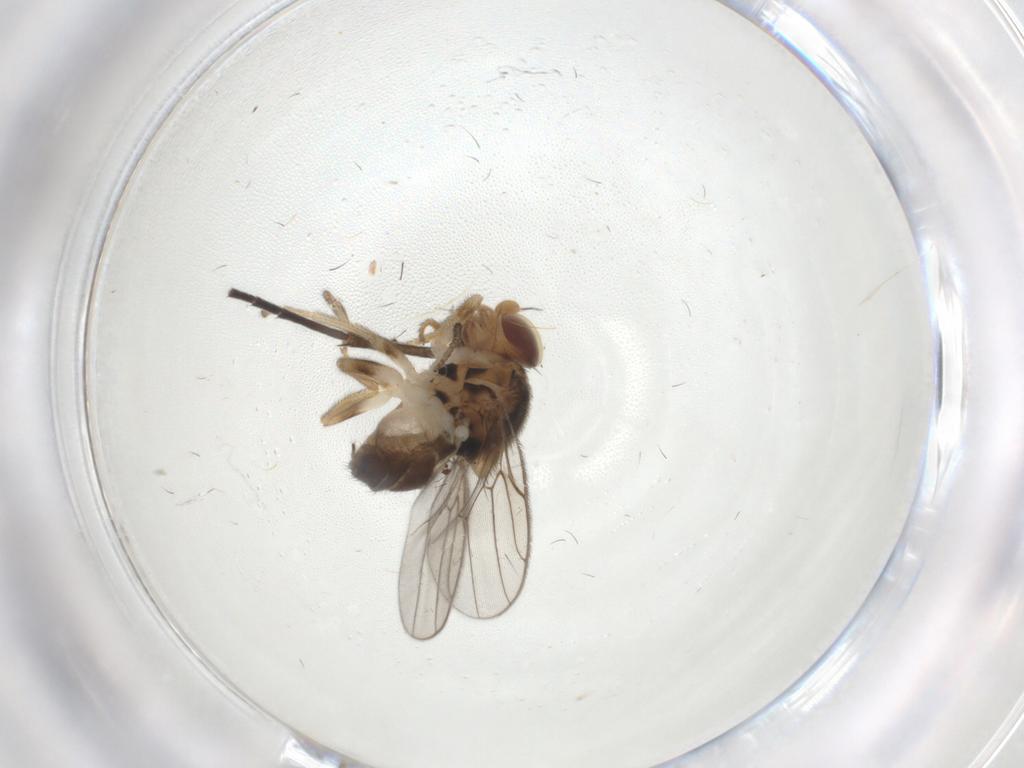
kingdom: Animalia
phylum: Arthropoda
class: Insecta
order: Diptera
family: Chloropidae
